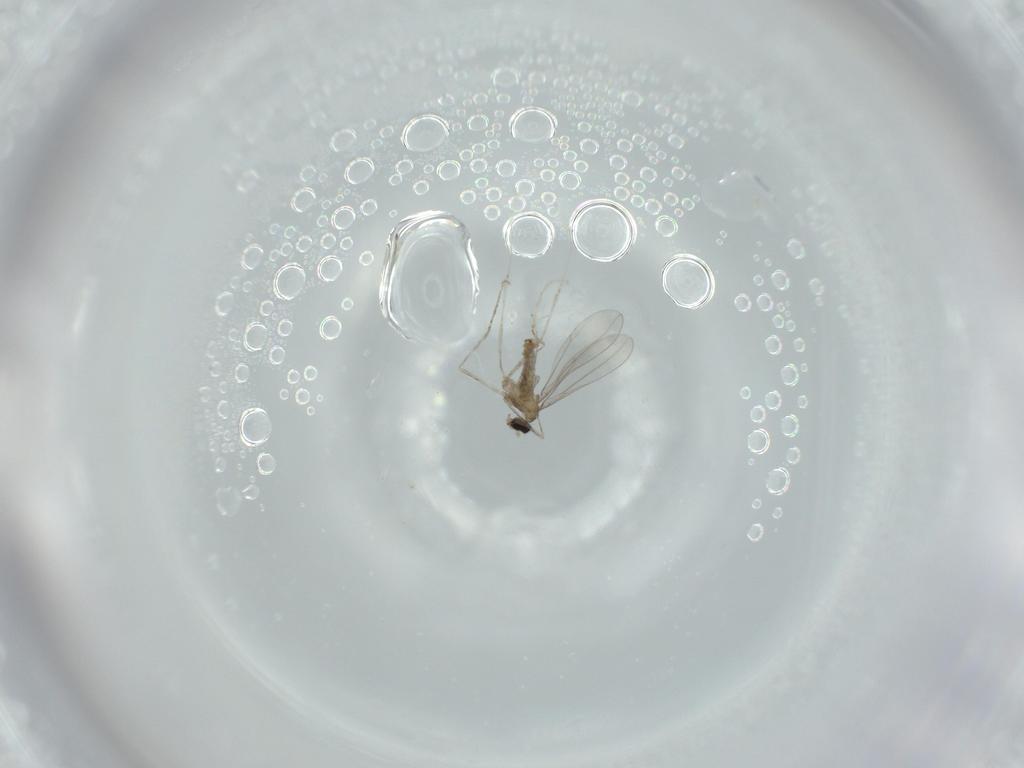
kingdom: Animalia
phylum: Arthropoda
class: Insecta
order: Diptera
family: Cecidomyiidae
